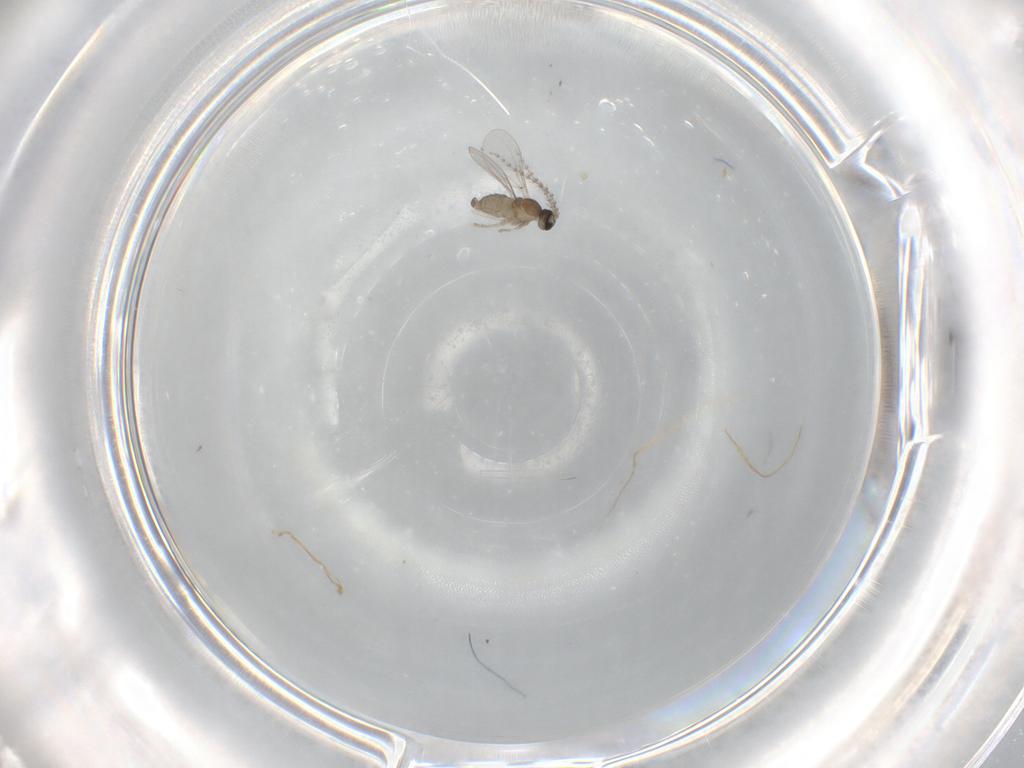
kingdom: Animalia
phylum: Arthropoda
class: Insecta
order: Diptera
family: Cecidomyiidae
